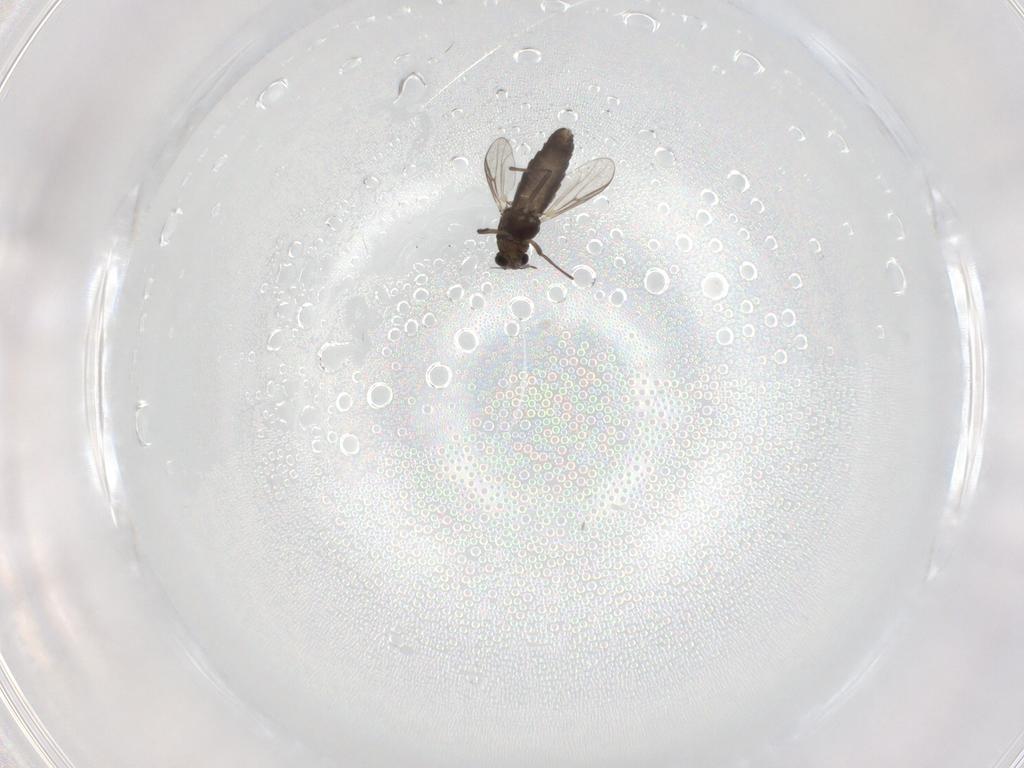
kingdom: Animalia
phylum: Arthropoda
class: Insecta
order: Diptera
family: Chironomidae
